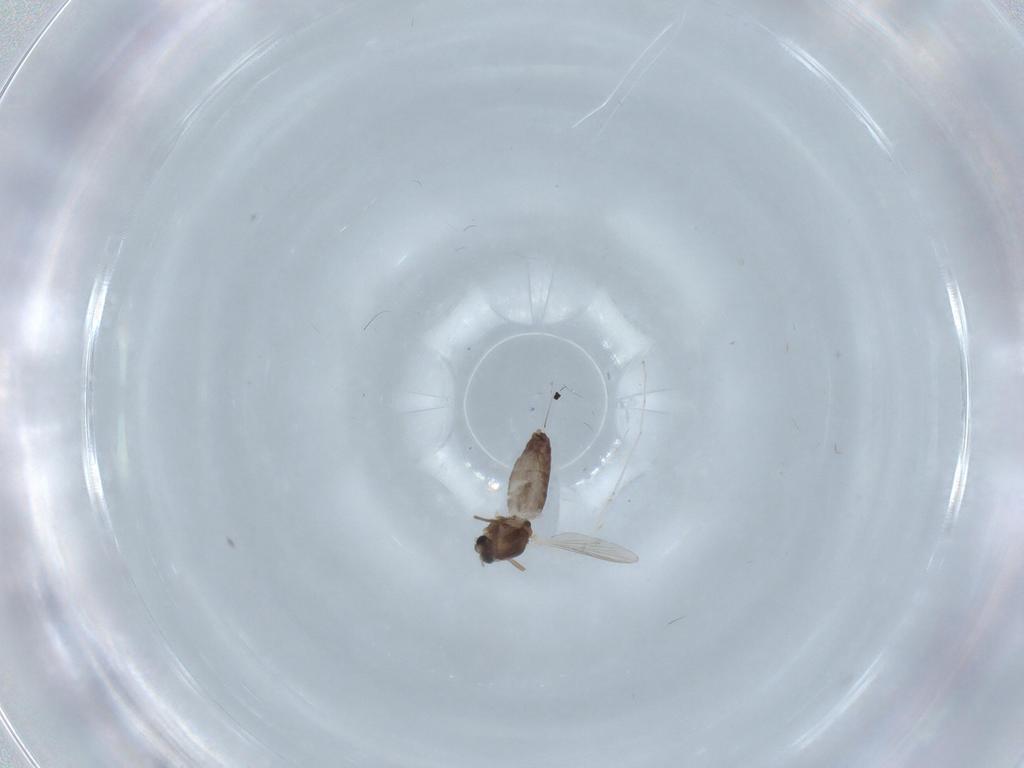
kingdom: Animalia
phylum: Arthropoda
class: Insecta
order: Diptera
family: Chironomidae
